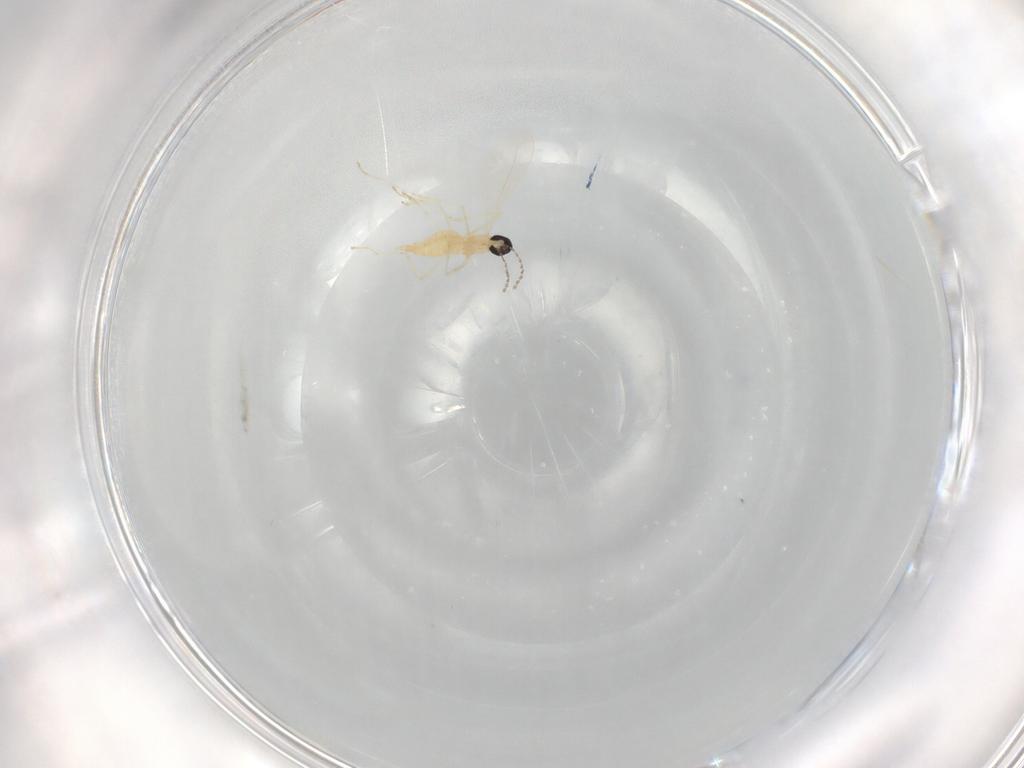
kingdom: Animalia
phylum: Arthropoda
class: Insecta
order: Diptera
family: Cecidomyiidae
